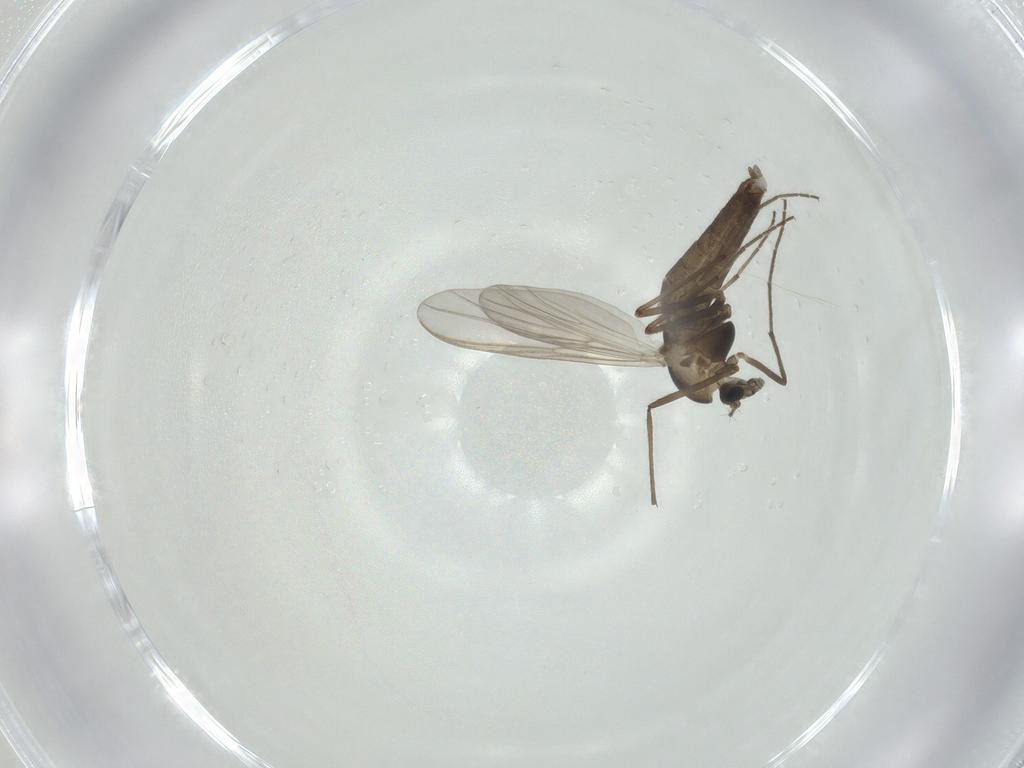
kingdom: Animalia
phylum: Arthropoda
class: Insecta
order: Diptera
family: Chironomidae
